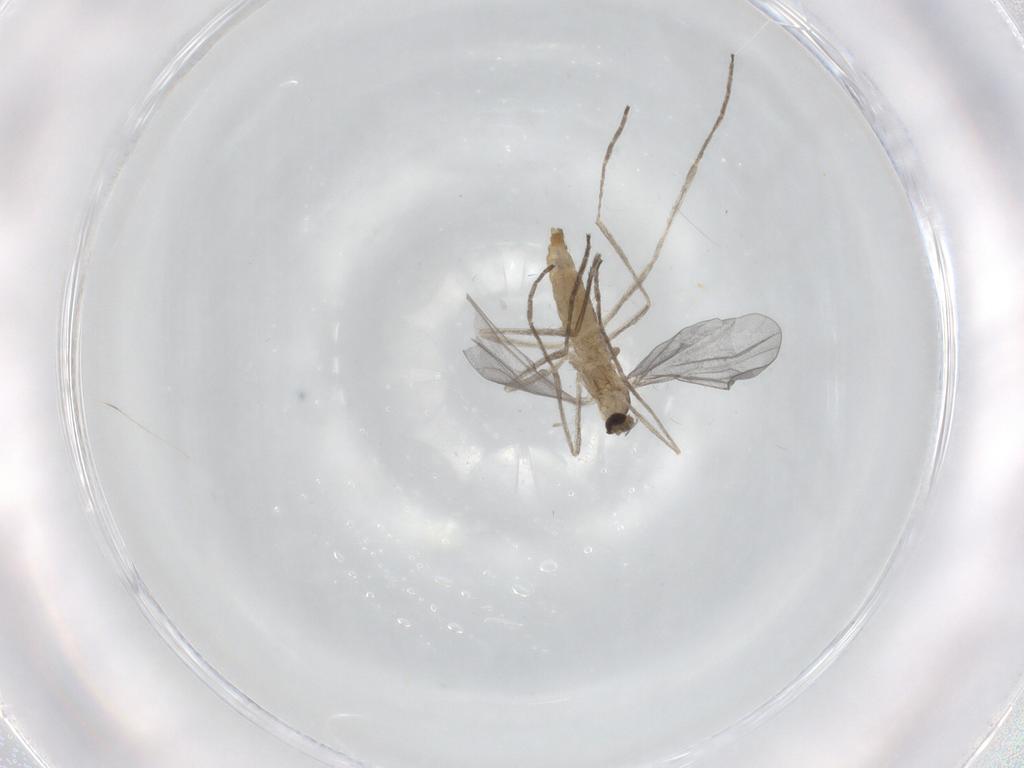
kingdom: Animalia
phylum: Arthropoda
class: Insecta
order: Diptera
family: Cecidomyiidae
